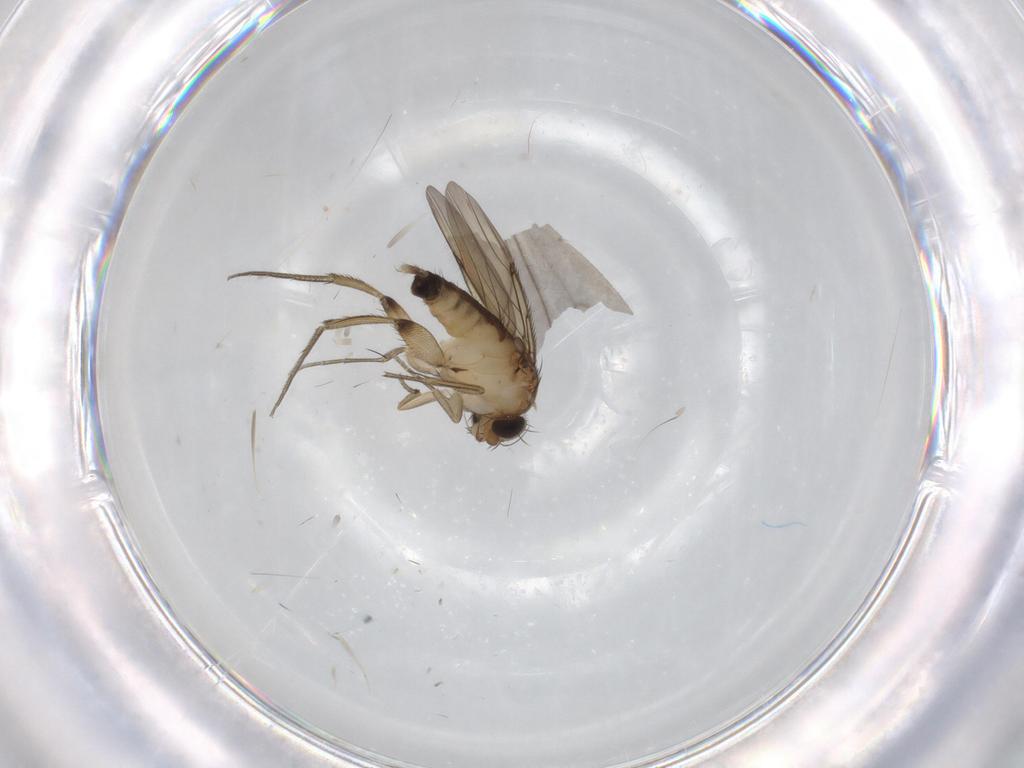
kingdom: Animalia
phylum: Arthropoda
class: Insecta
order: Diptera
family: Phoridae
